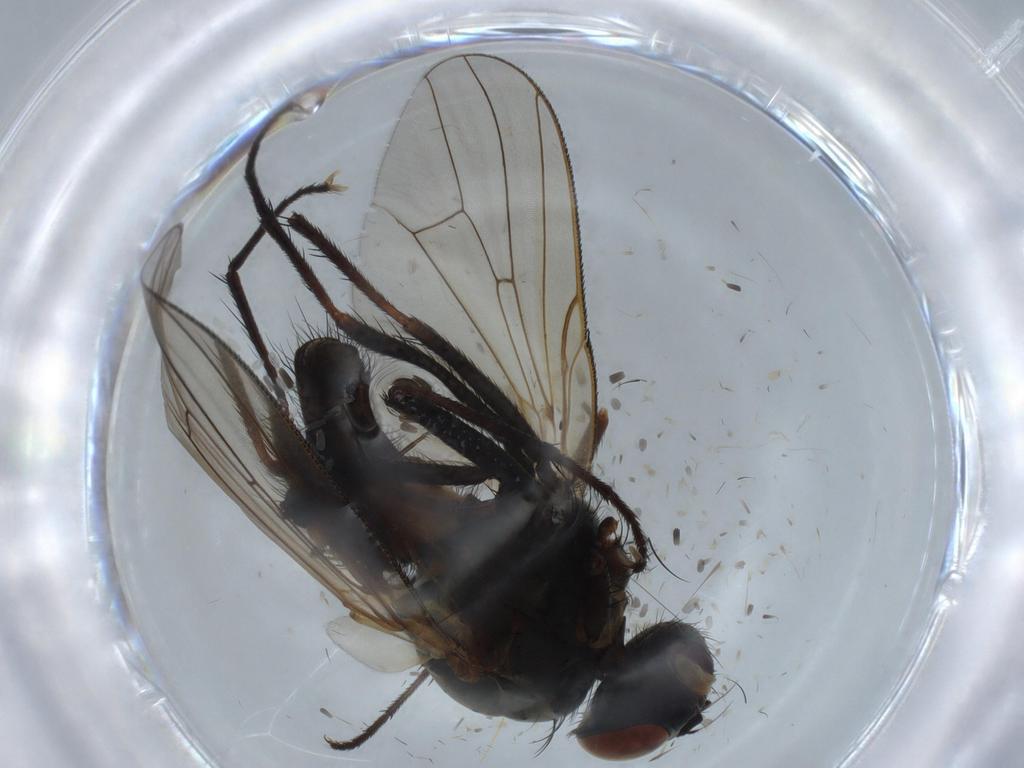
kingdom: Animalia
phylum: Arthropoda
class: Insecta
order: Diptera
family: Anthomyiidae
